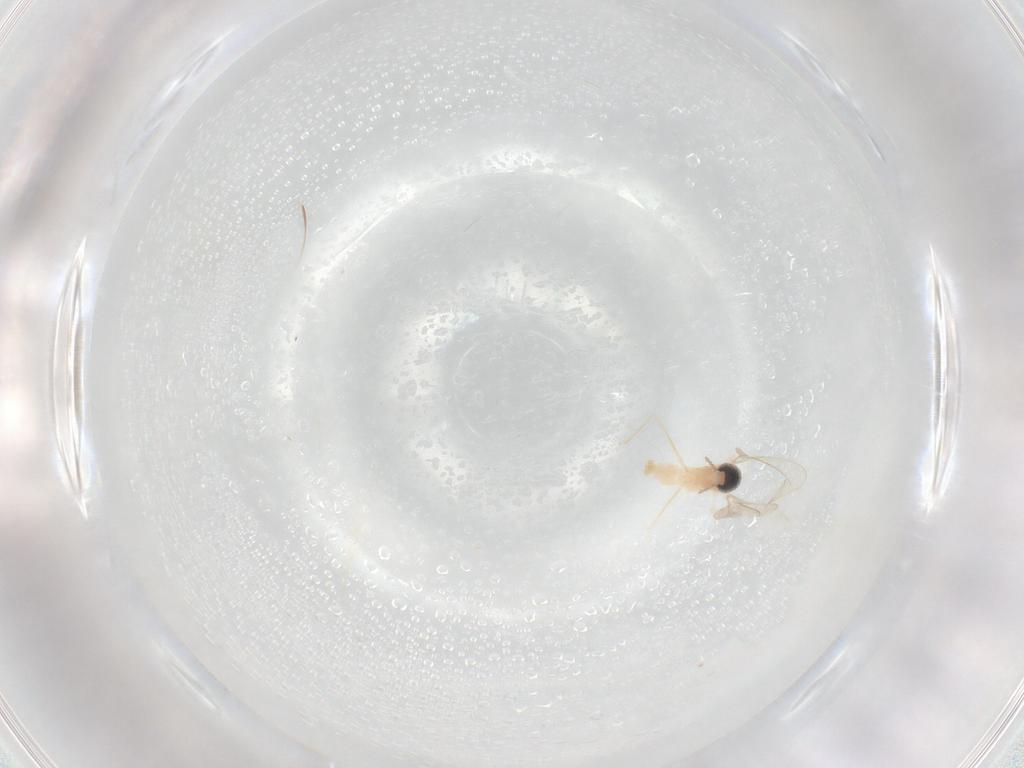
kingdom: Animalia
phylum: Arthropoda
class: Insecta
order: Diptera
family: Cecidomyiidae
